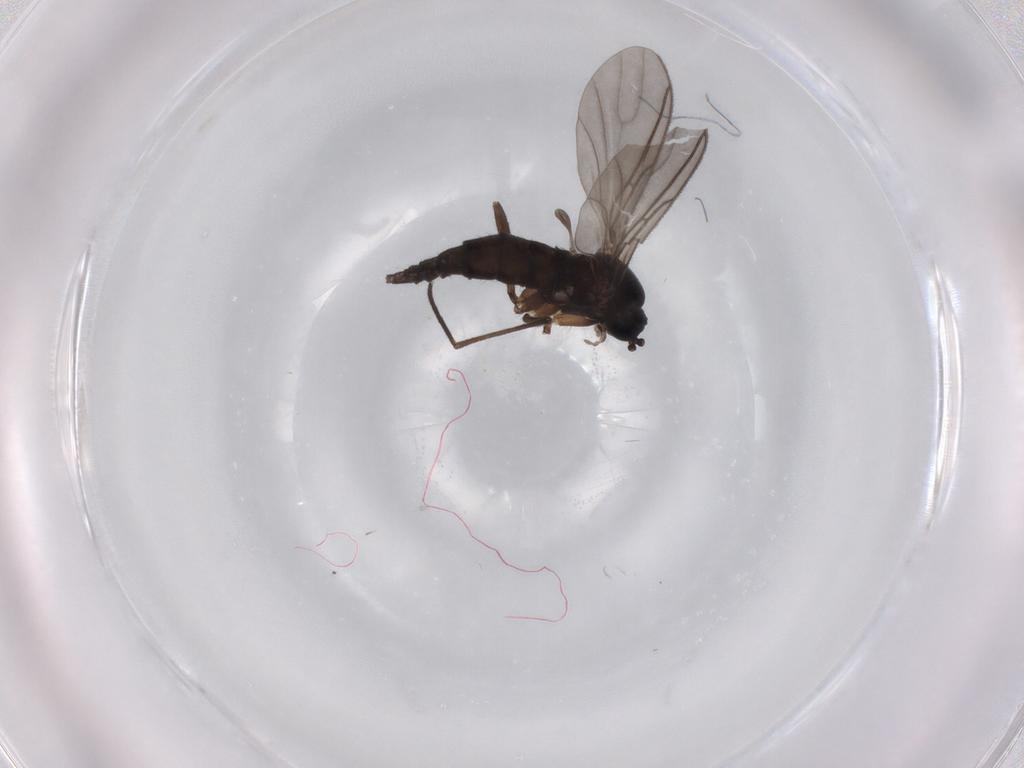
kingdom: Animalia
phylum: Arthropoda
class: Insecta
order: Diptera
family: Sciaridae
